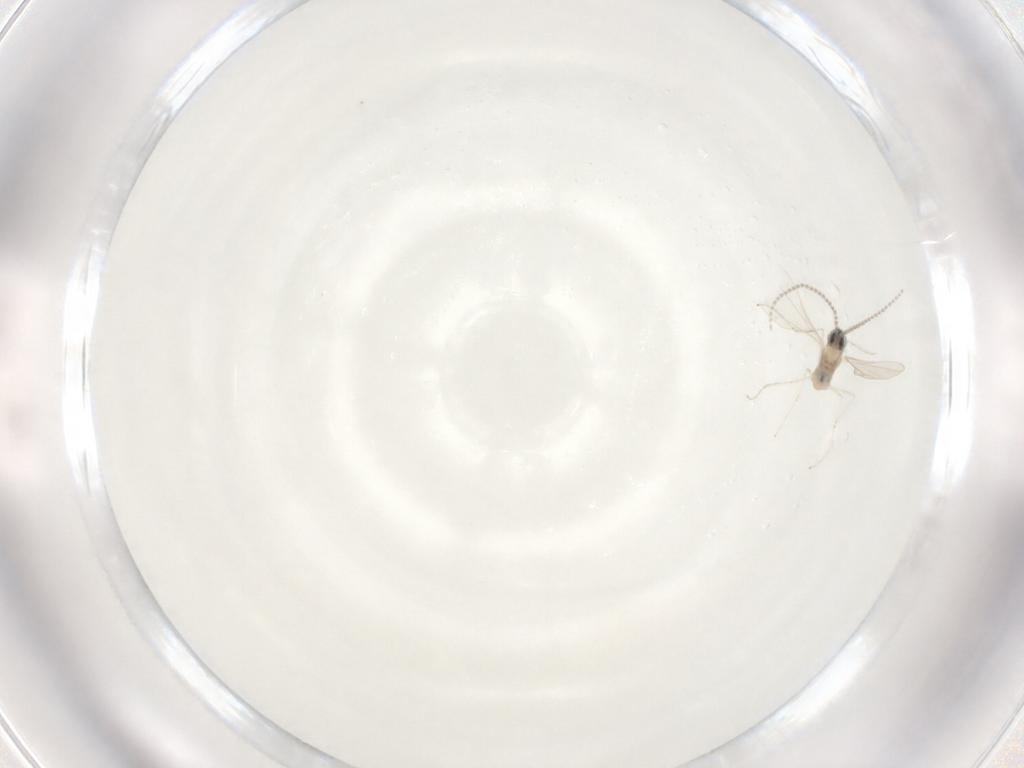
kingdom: Animalia
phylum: Arthropoda
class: Insecta
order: Diptera
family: Cecidomyiidae
